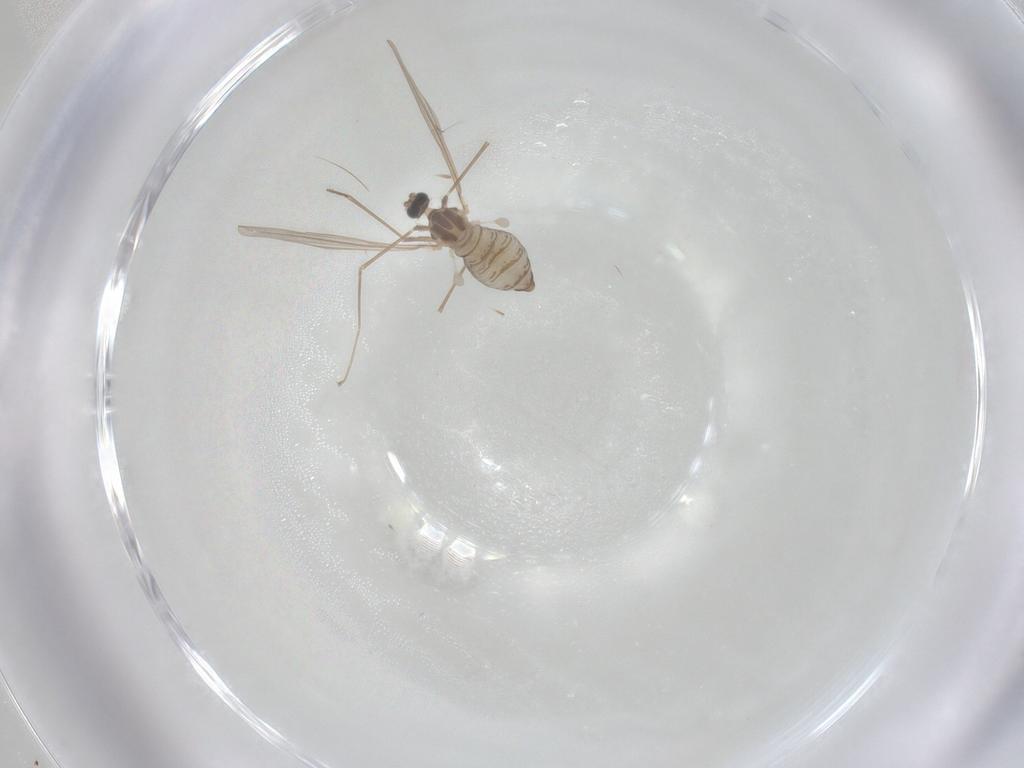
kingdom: Animalia
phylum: Arthropoda
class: Insecta
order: Diptera
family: Cecidomyiidae
